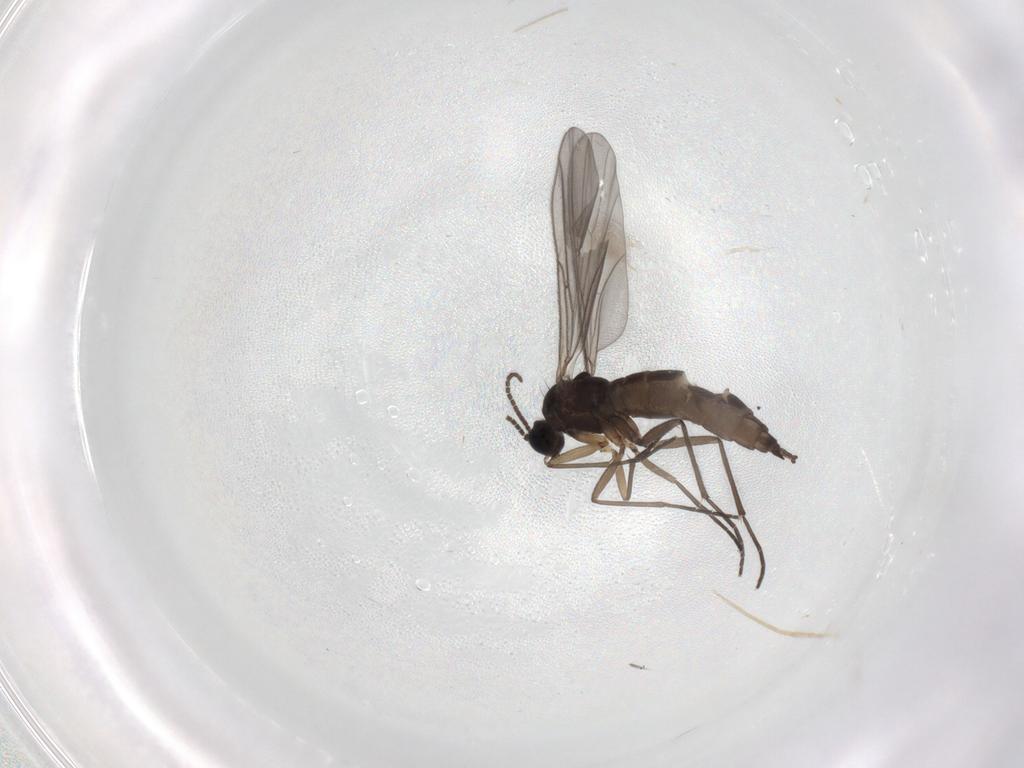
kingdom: Animalia
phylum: Arthropoda
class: Insecta
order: Diptera
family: Sciaridae
